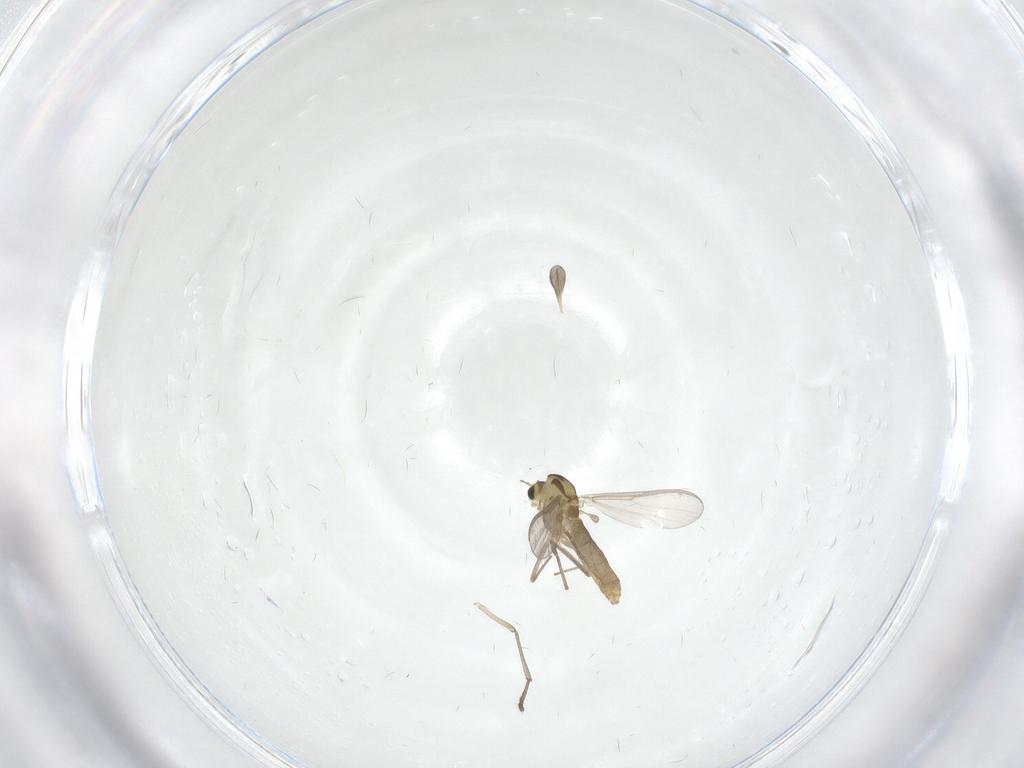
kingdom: Animalia
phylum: Arthropoda
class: Insecta
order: Diptera
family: Chironomidae
